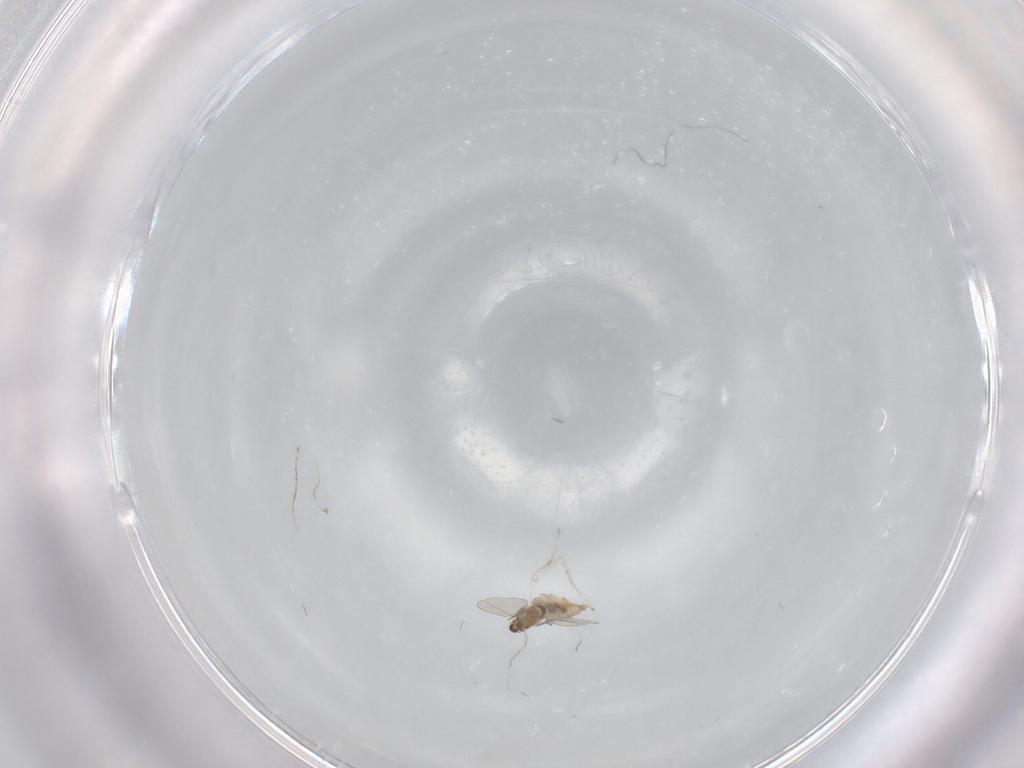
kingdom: Animalia
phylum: Arthropoda
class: Insecta
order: Diptera
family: Cecidomyiidae
